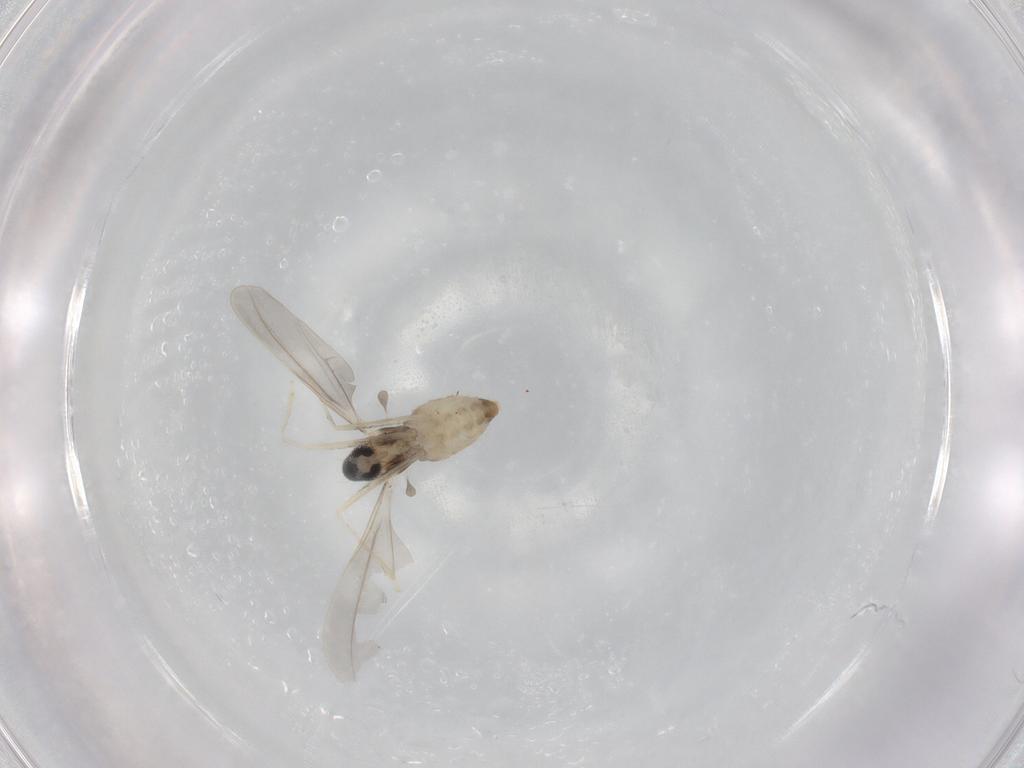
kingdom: Animalia
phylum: Arthropoda
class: Insecta
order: Diptera
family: Cecidomyiidae
